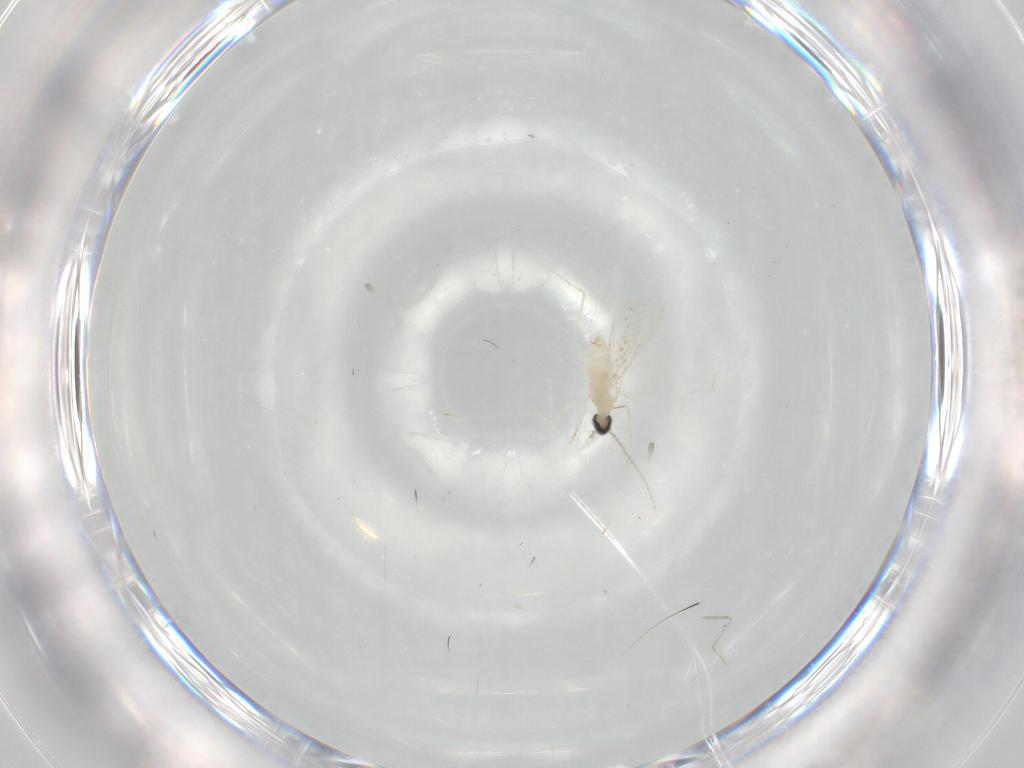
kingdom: Animalia
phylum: Arthropoda
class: Insecta
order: Diptera
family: Cecidomyiidae
